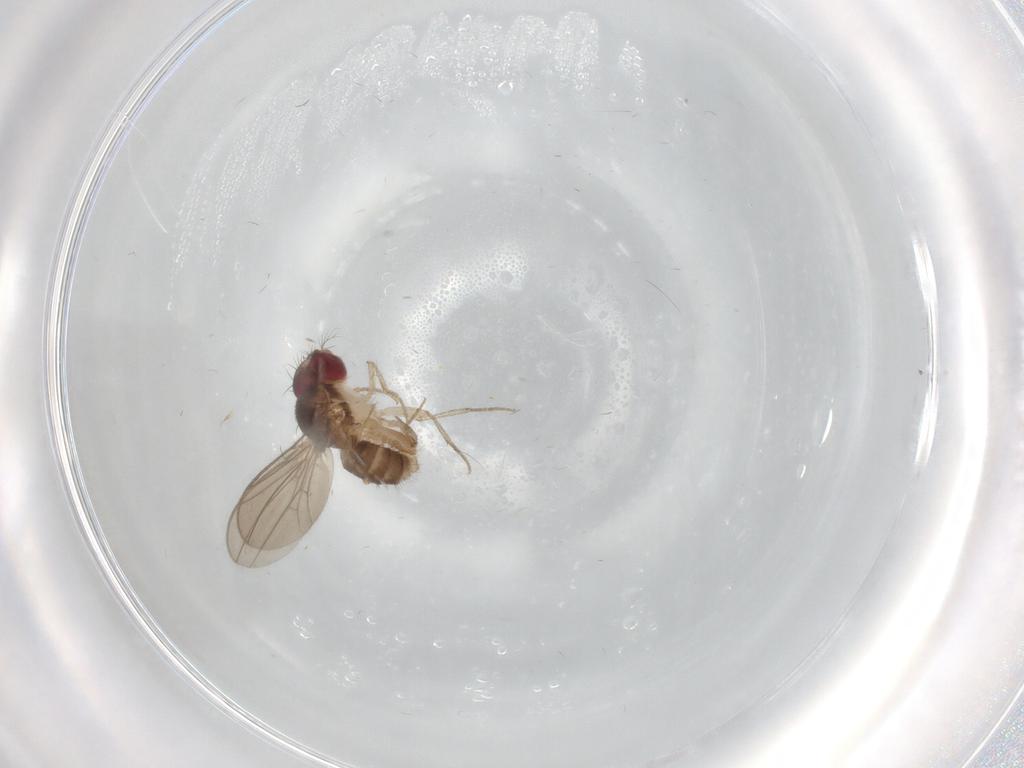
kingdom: Animalia
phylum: Arthropoda
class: Insecta
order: Diptera
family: Drosophilidae
